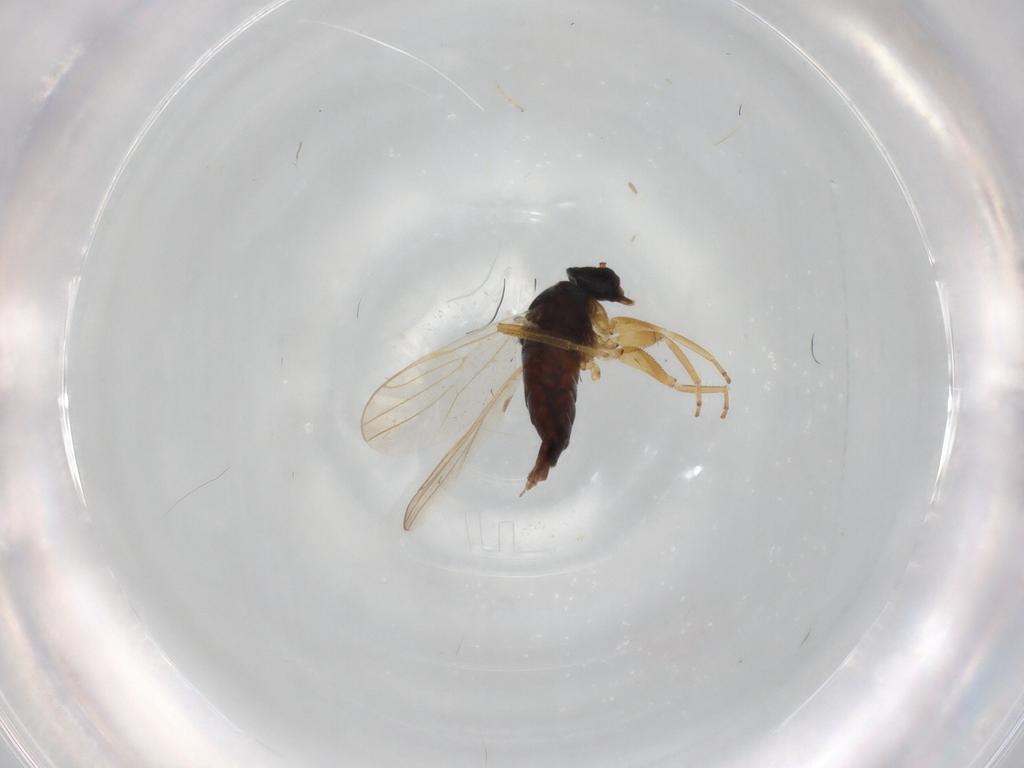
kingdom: Animalia
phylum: Arthropoda
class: Insecta
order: Diptera
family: Hybotidae
